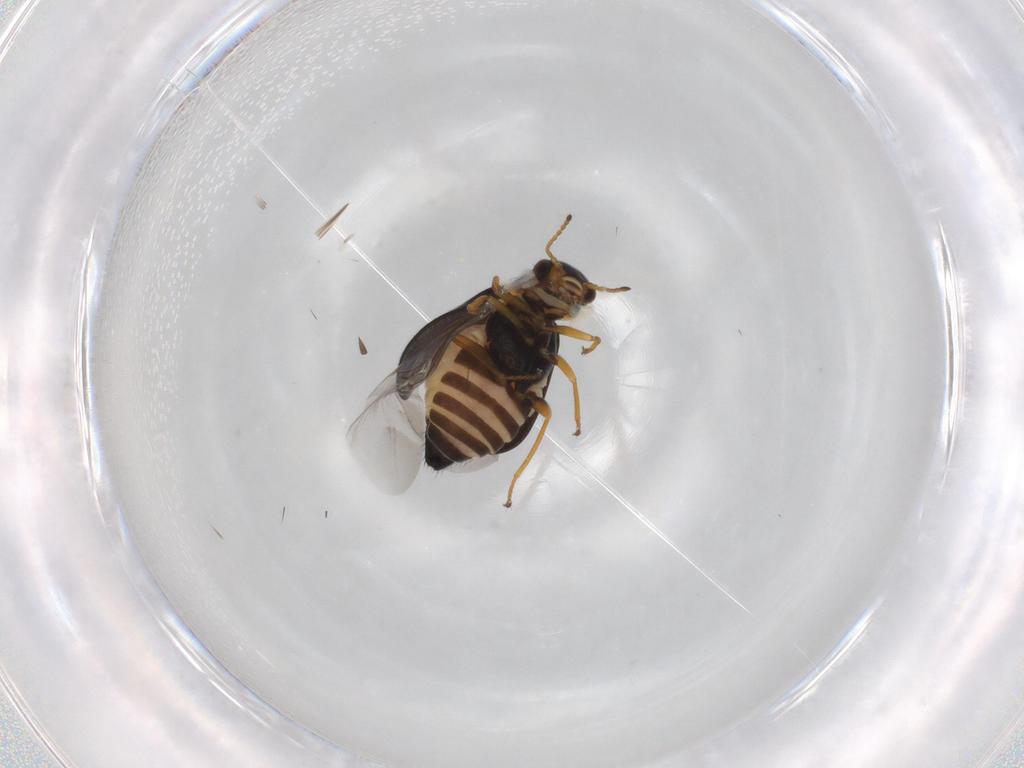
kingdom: Animalia
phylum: Arthropoda
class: Insecta
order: Coleoptera
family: Melyridae
